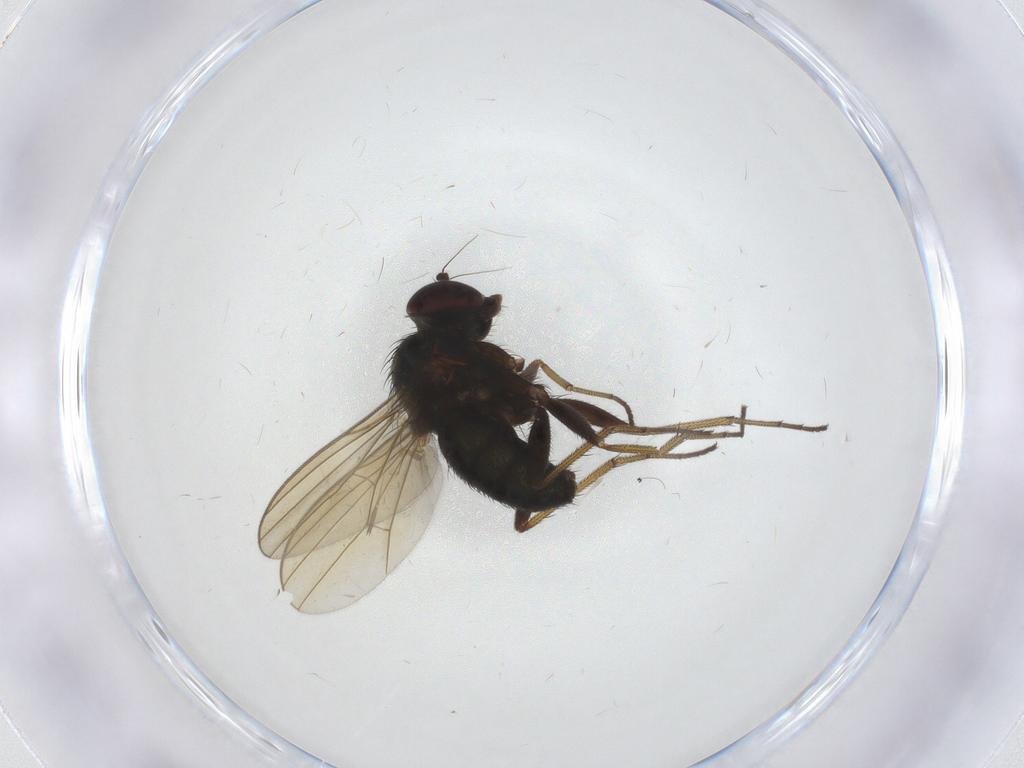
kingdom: Animalia
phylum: Arthropoda
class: Insecta
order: Diptera
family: Dolichopodidae
